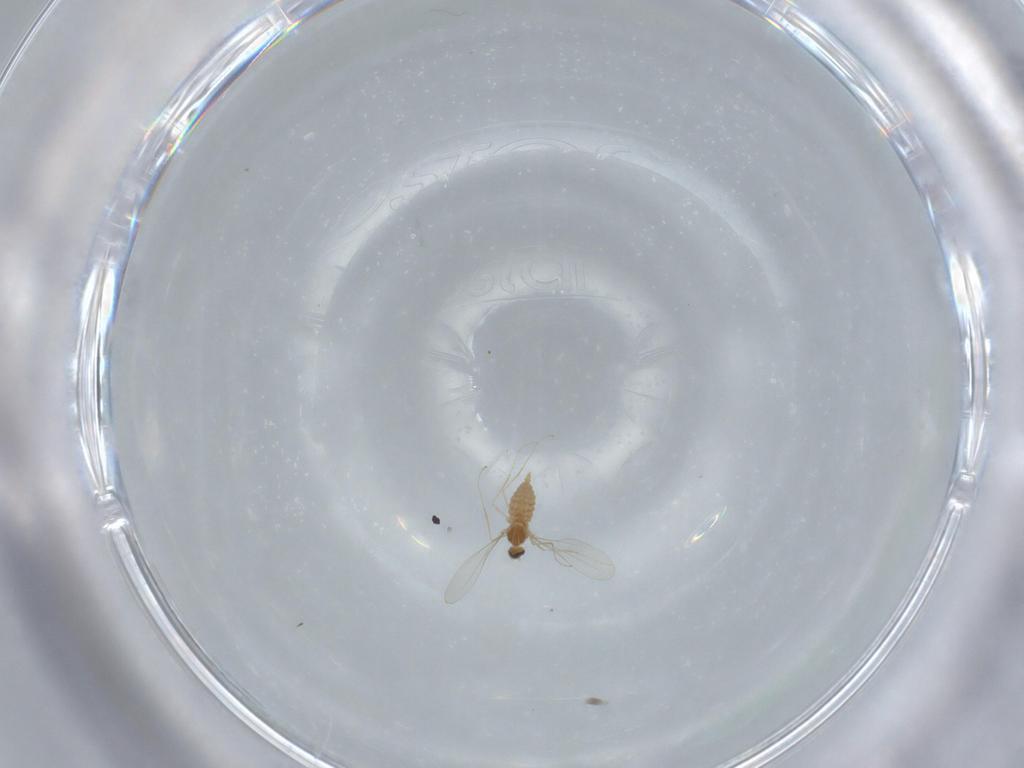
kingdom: Animalia
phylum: Arthropoda
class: Insecta
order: Diptera
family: Cecidomyiidae
